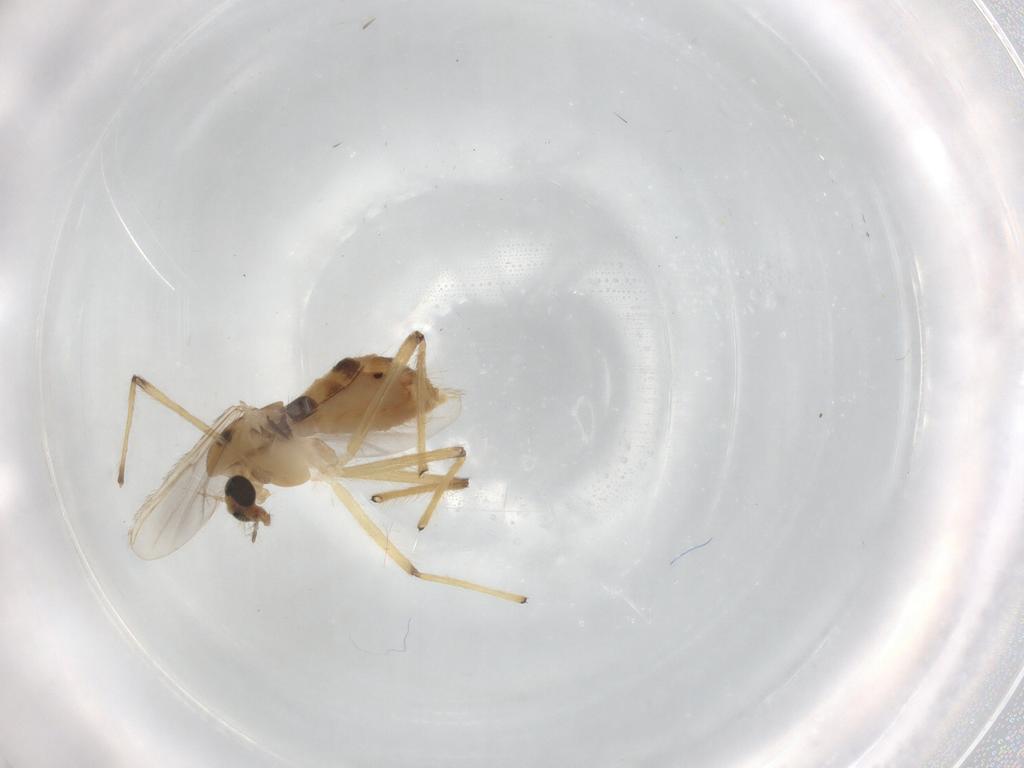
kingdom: Animalia
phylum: Arthropoda
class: Insecta
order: Diptera
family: Chironomidae
